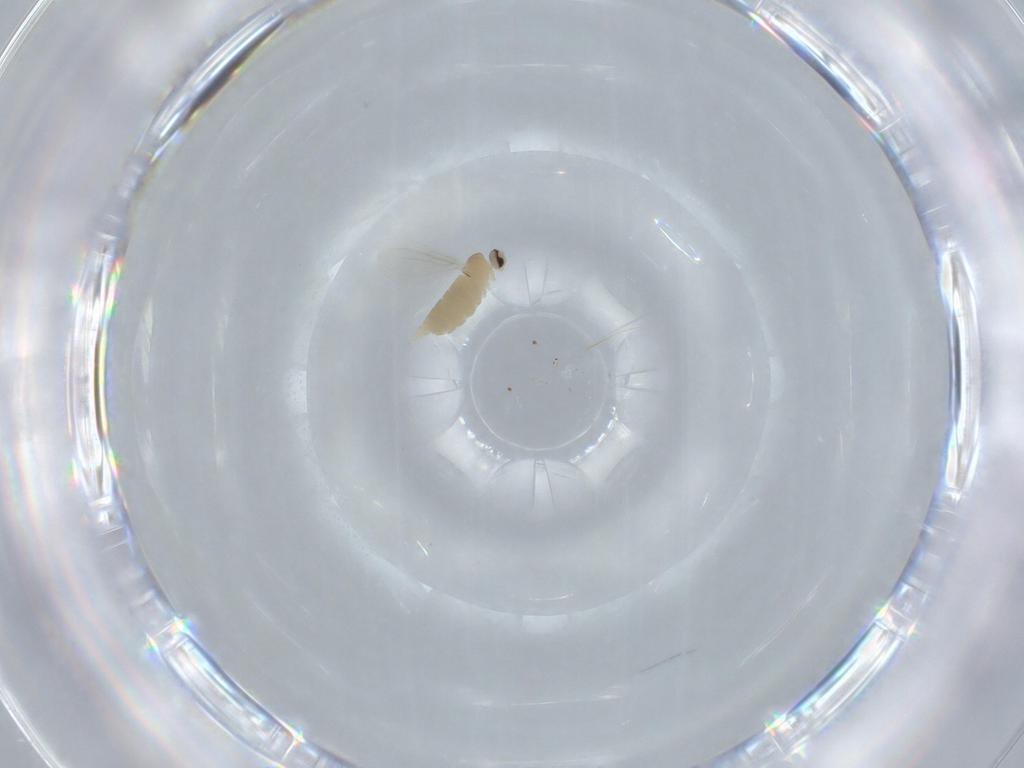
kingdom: Animalia
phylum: Arthropoda
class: Insecta
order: Diptera
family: Cecidomyiidae
